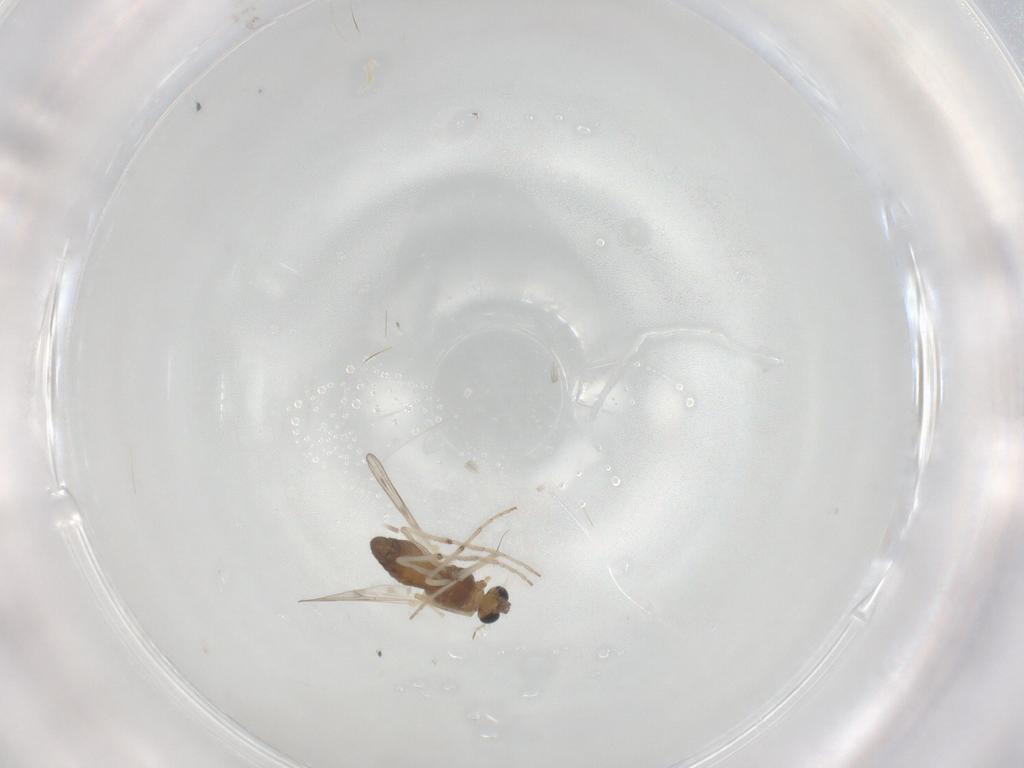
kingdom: Animalia
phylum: Arthropoda
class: Insecta
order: Diptera
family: Chironomidae
